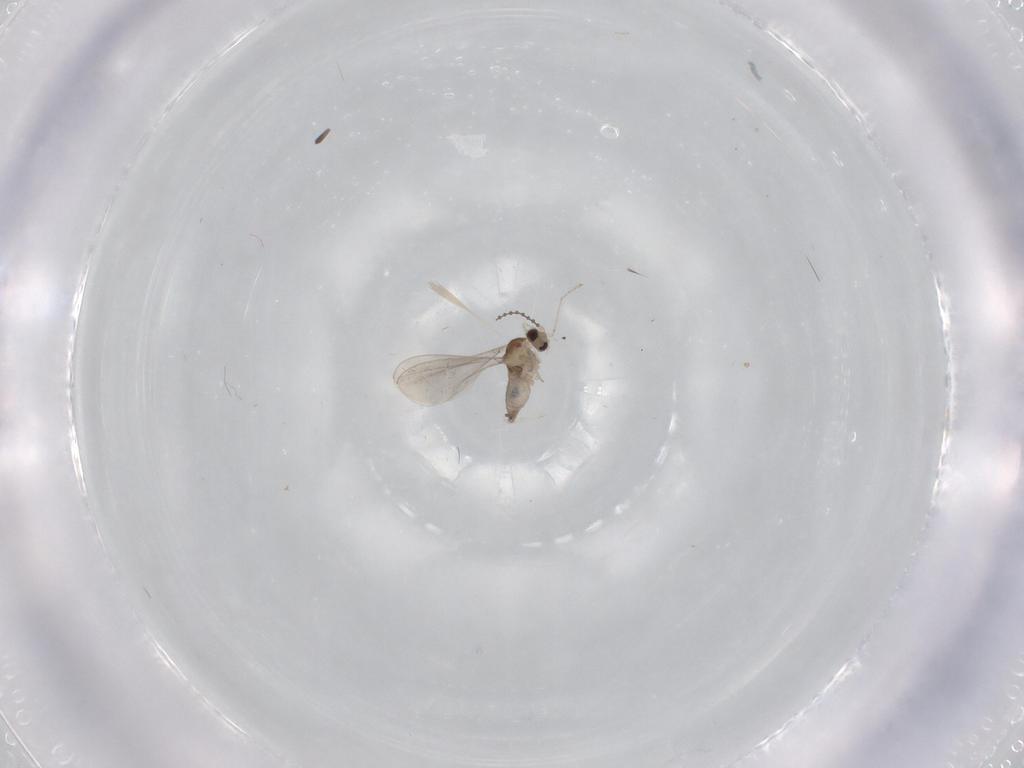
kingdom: Animalia
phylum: Arthropoda
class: Insecta
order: Diptera
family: Cecidomyiidae
